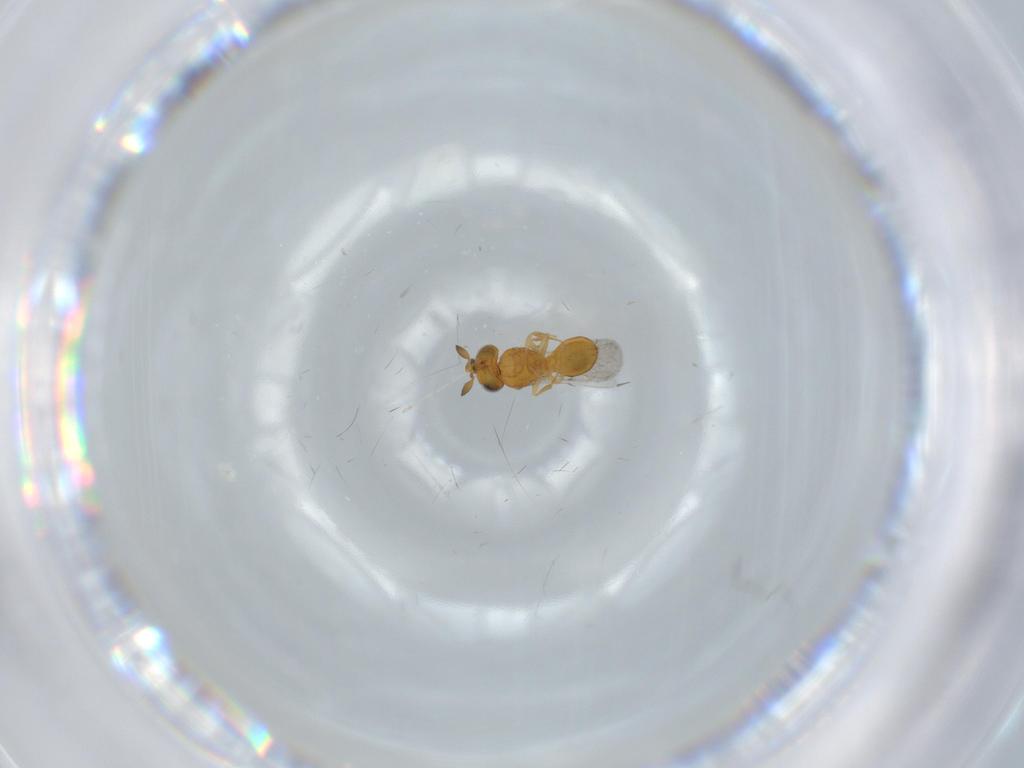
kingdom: Animalia
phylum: Arthropoda
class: Insecta
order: Hymenoptera
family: Scelionidae
